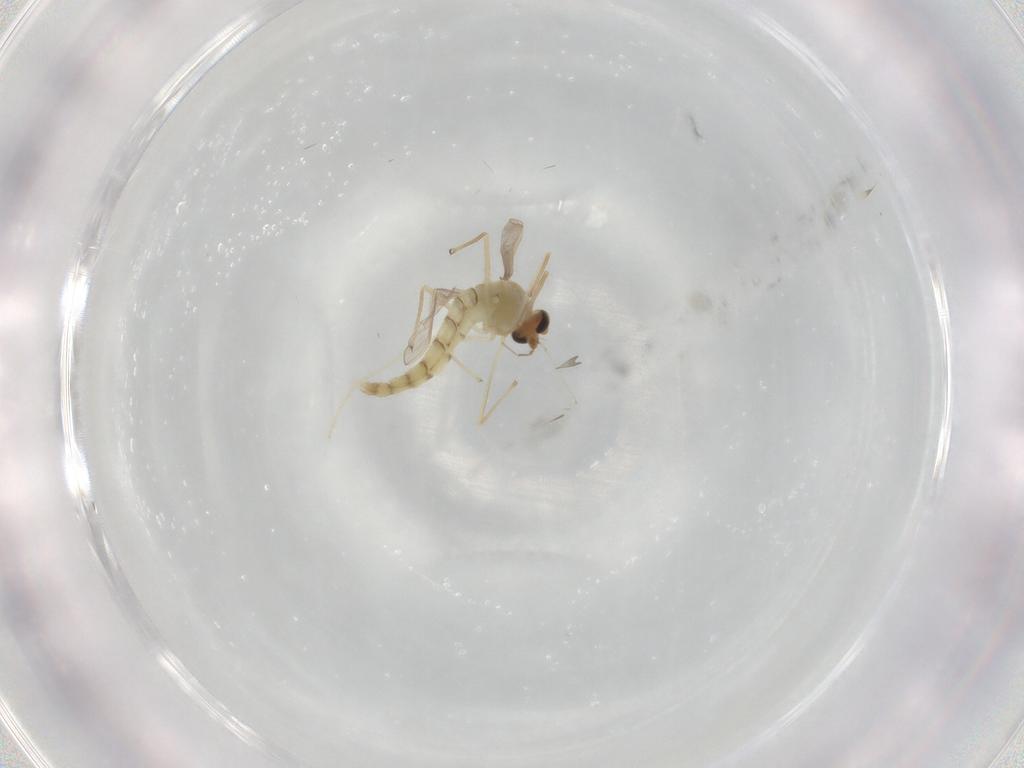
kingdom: Animalia
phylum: Arthropoda
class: Insecta
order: Diptera
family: Chironomidae
